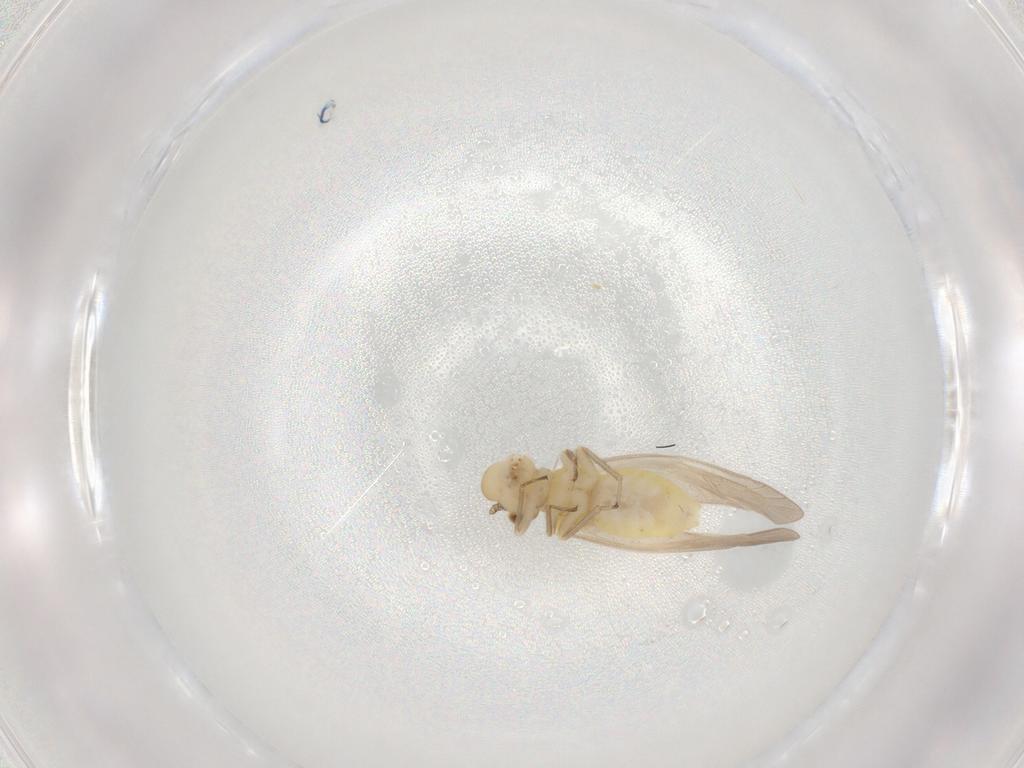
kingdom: Animalia
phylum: Arthropoda
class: Insecta
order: Psocodea
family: Caeciliusidae
